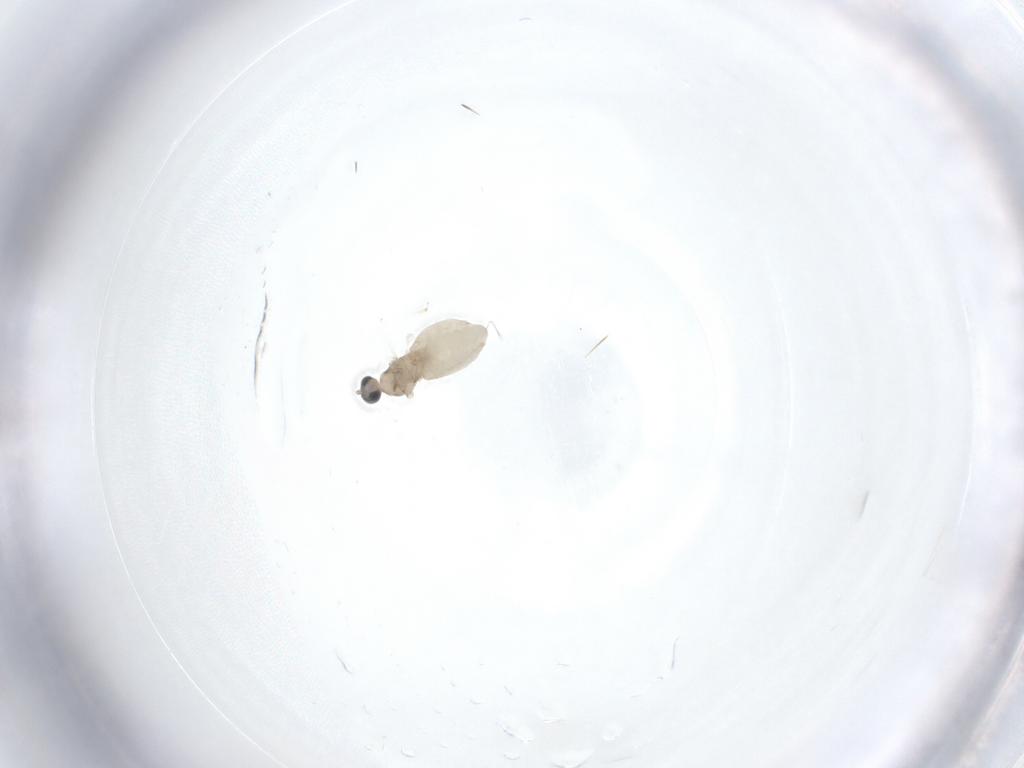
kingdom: Animalia
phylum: Arthropoda
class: Insecta
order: Diptera
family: Cecidomyiidae
